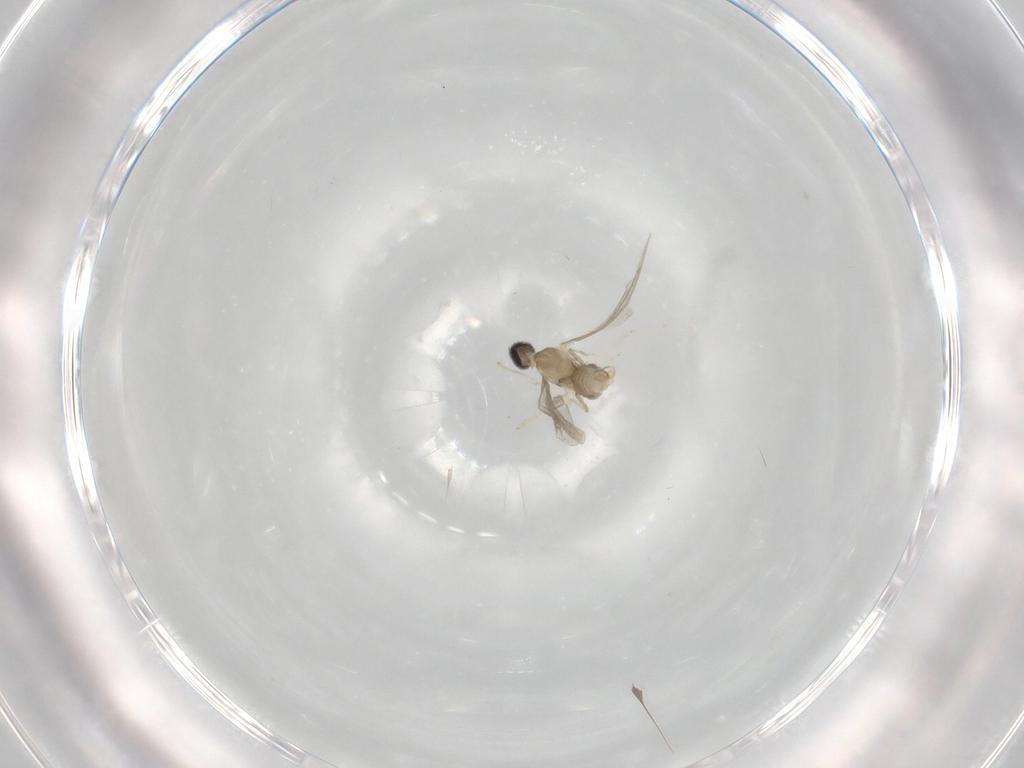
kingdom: Animalia
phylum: Arthropoda
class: Insecta
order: Diptera
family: Cecidomyiidae
